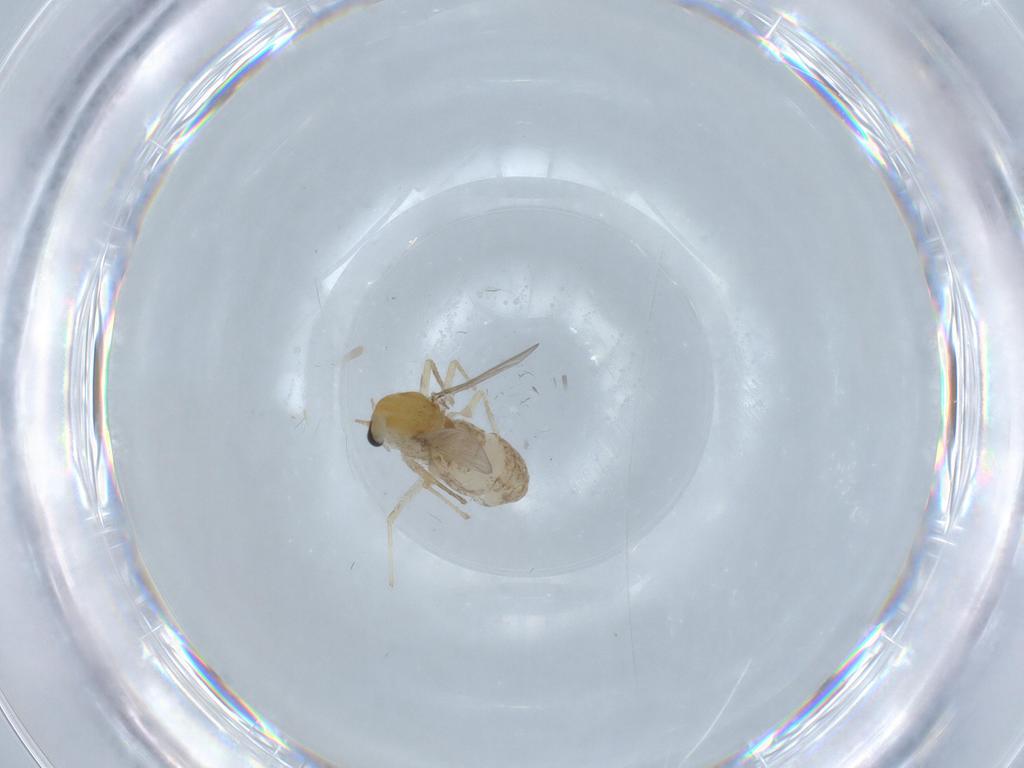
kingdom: Animalia
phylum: Arthropoda
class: Insecta
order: Diptera
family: Chironomidae
